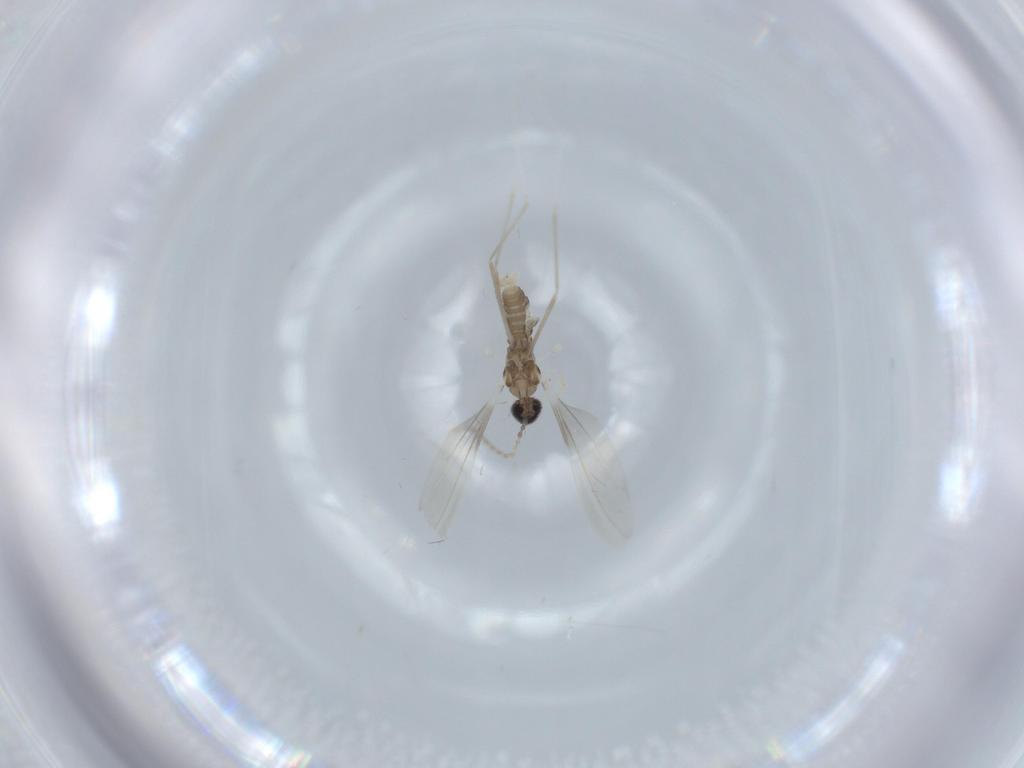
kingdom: Animalia
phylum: Arthropoda
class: Insecta
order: Diptera
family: Cecidomyiidae
